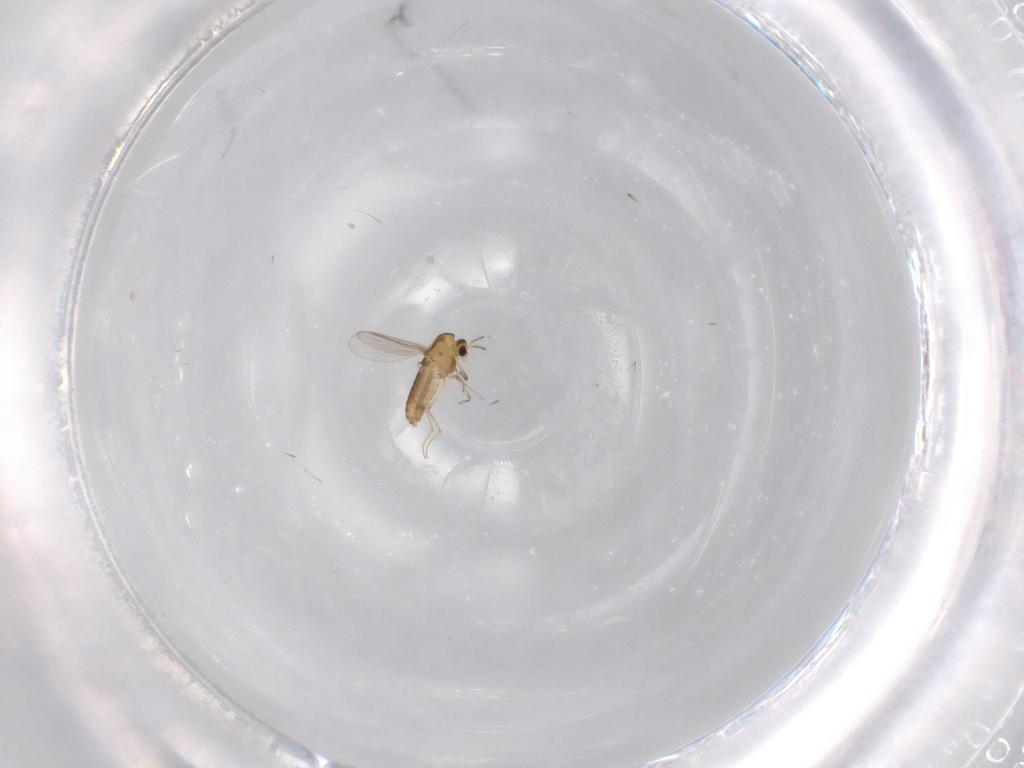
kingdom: Animalia
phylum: Arthropoda
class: Insecta
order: Diptera
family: Chironomidae
